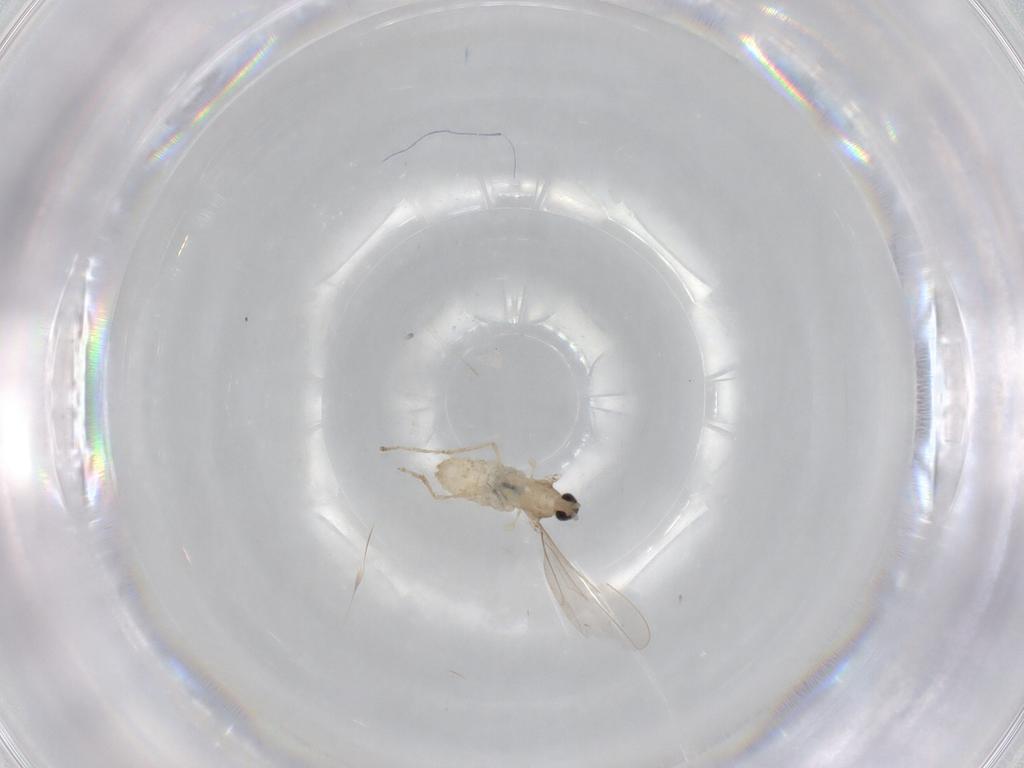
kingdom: Animalia
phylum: Arthropoda
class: Insecta
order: Diptera
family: Cecidomyiidae
